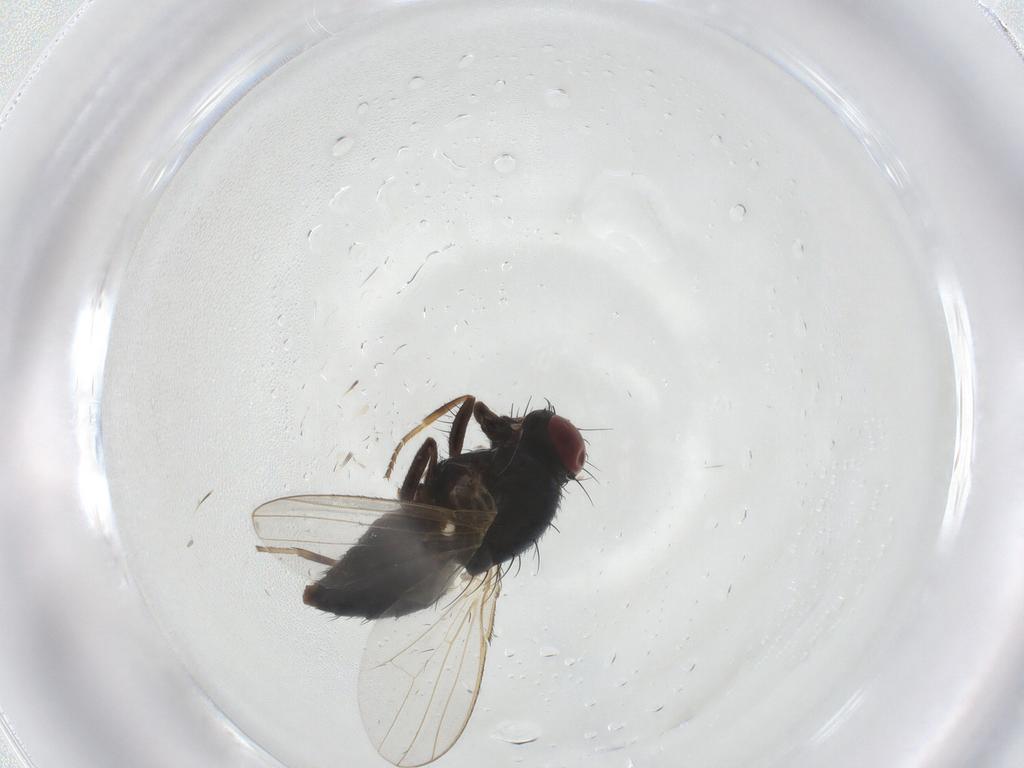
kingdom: Animalia
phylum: Arthropoda
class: Insecta
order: Diptera
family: Carnidae
